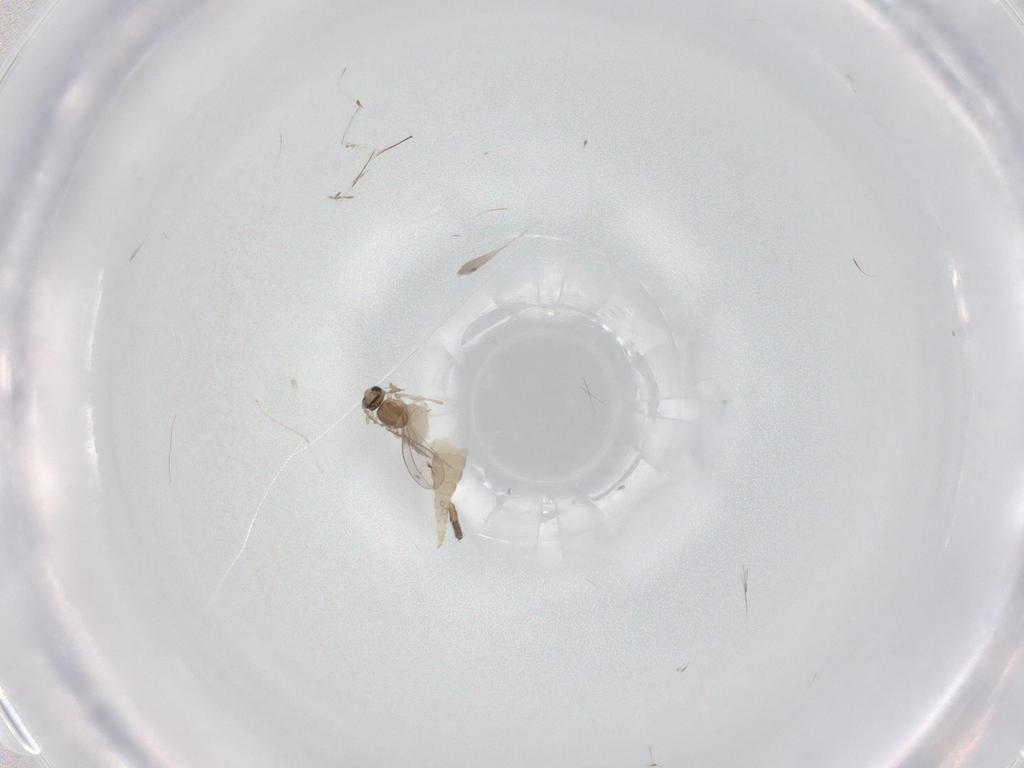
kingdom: Animalia
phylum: Arthropoda
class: Insecta
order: Diptera
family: Cecidomyiidae
